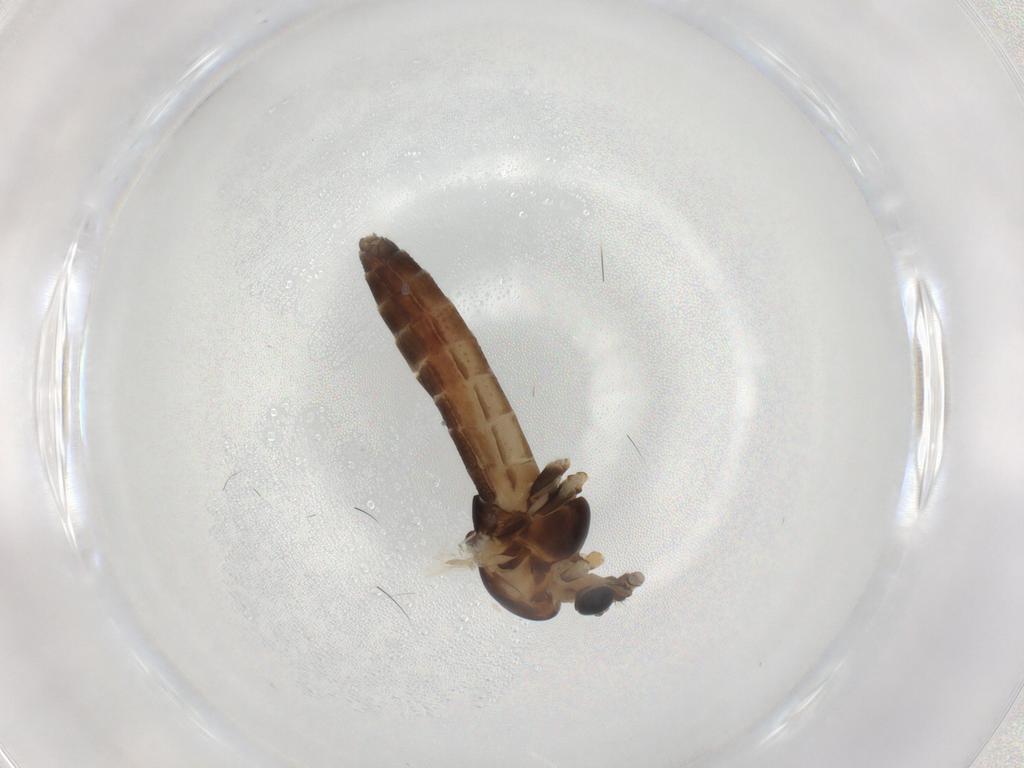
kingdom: Animalia
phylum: Arthropoda
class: Insecta
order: Diptera
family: Chironomidae
